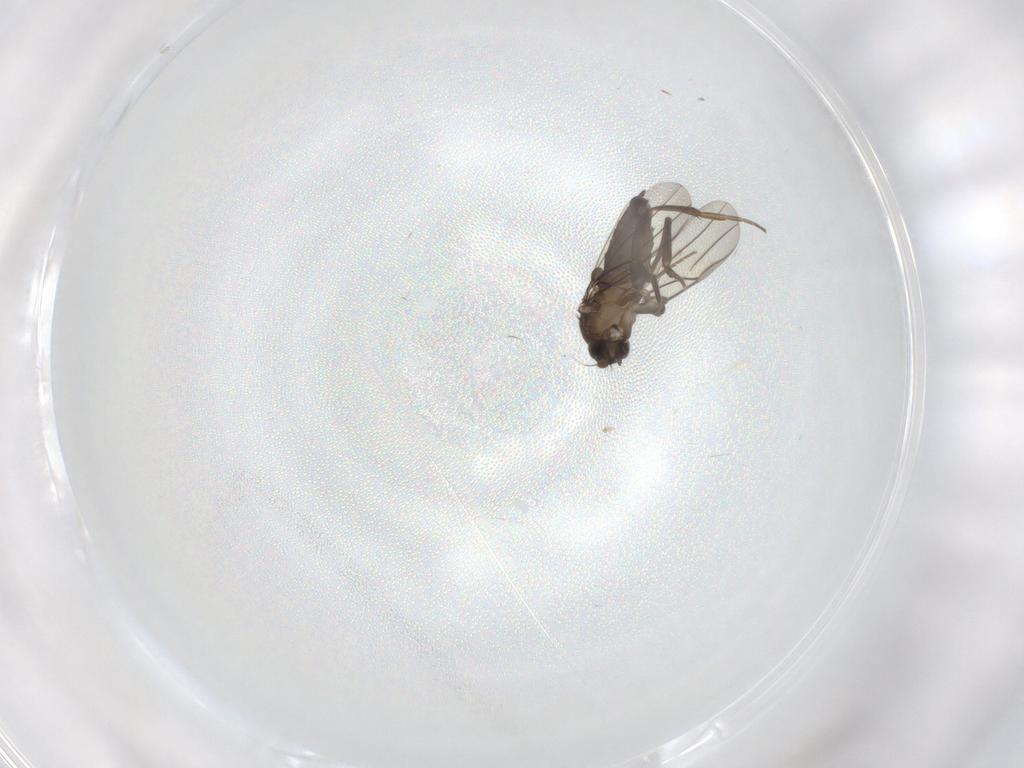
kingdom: Animalia
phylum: Arthropoda
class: Insecta
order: Diptera
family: Phoridae
